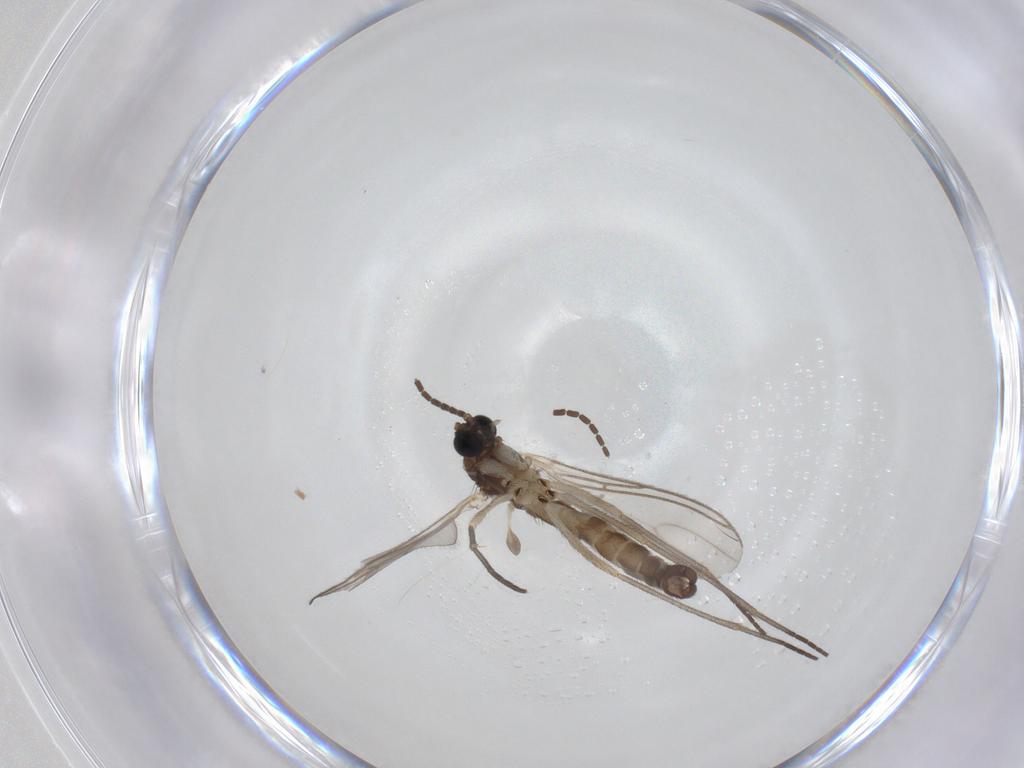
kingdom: Animalia
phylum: Arthropoda
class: Insecta
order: Diptera
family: Sciaridae
